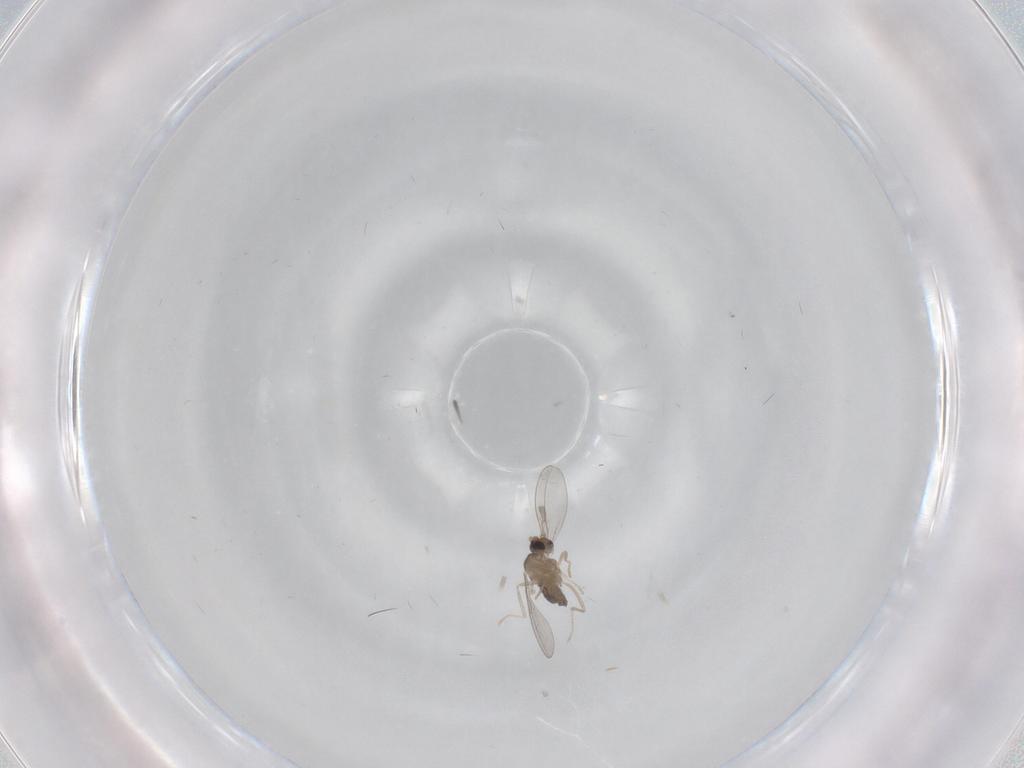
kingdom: Animalia
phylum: Arthropoda
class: Insecta
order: Diptera
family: Cecidomyiidae
